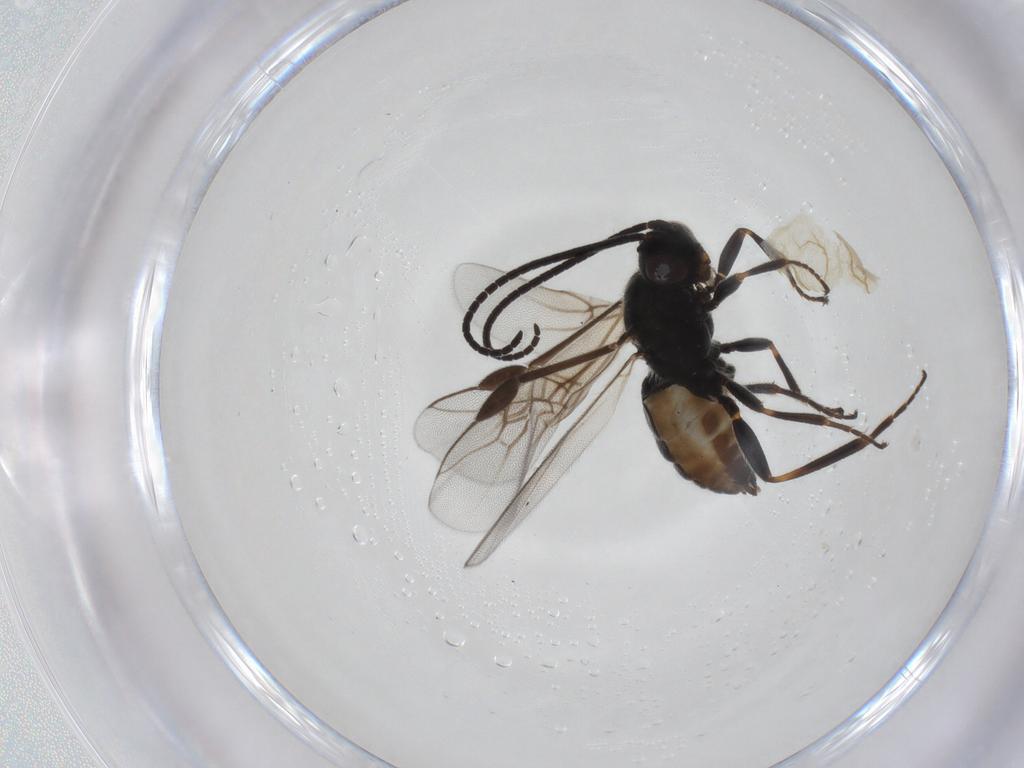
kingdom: Animalia
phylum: Arthropoda
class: Insecta
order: Hymenoptera
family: Braconidae
